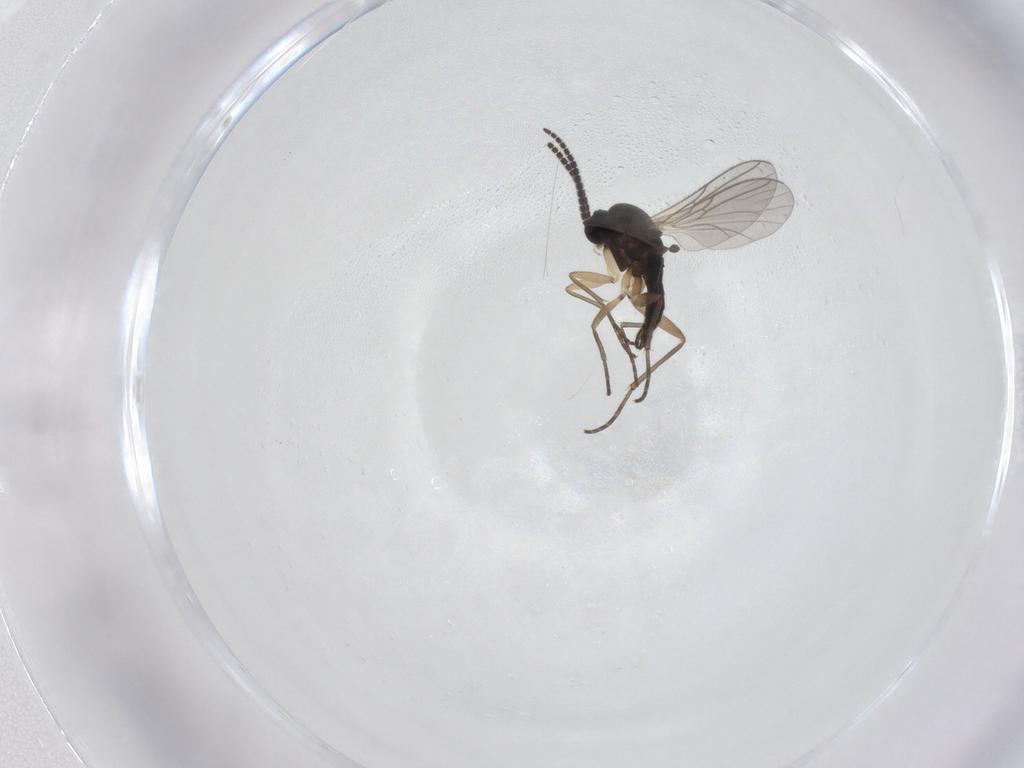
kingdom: Animalia
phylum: Arthropoda
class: Insecta
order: Diptera
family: Sciaridae
